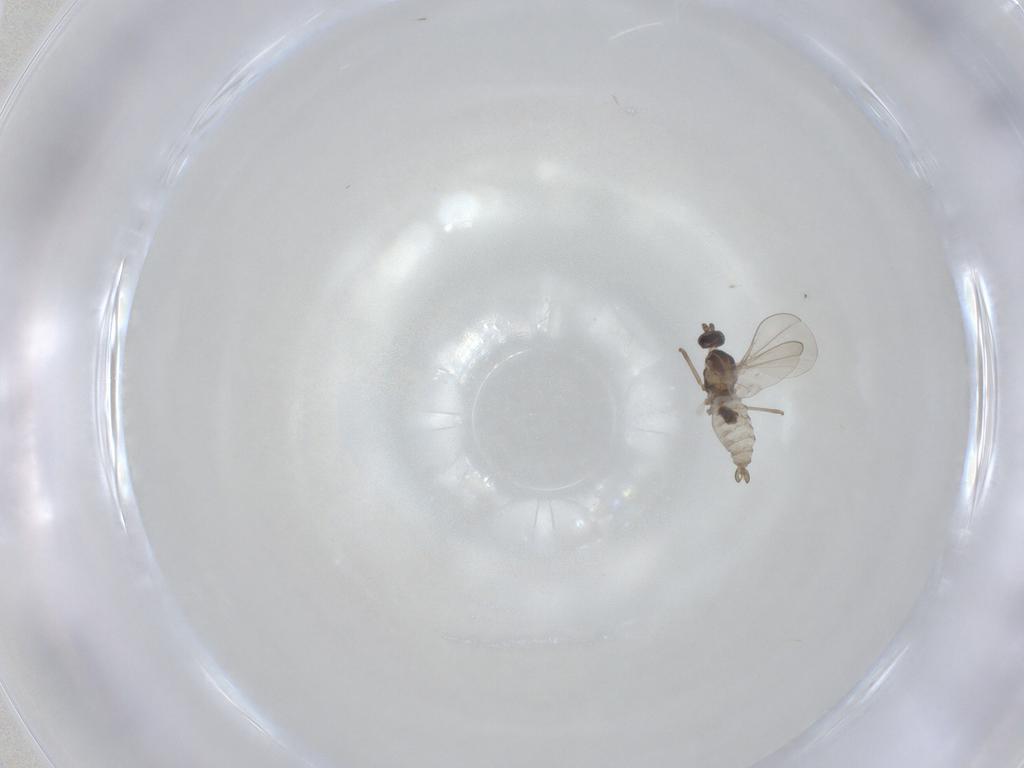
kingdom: Animalia
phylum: Arthropoda
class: Insecta
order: Diptera
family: Cecidomyiidae
